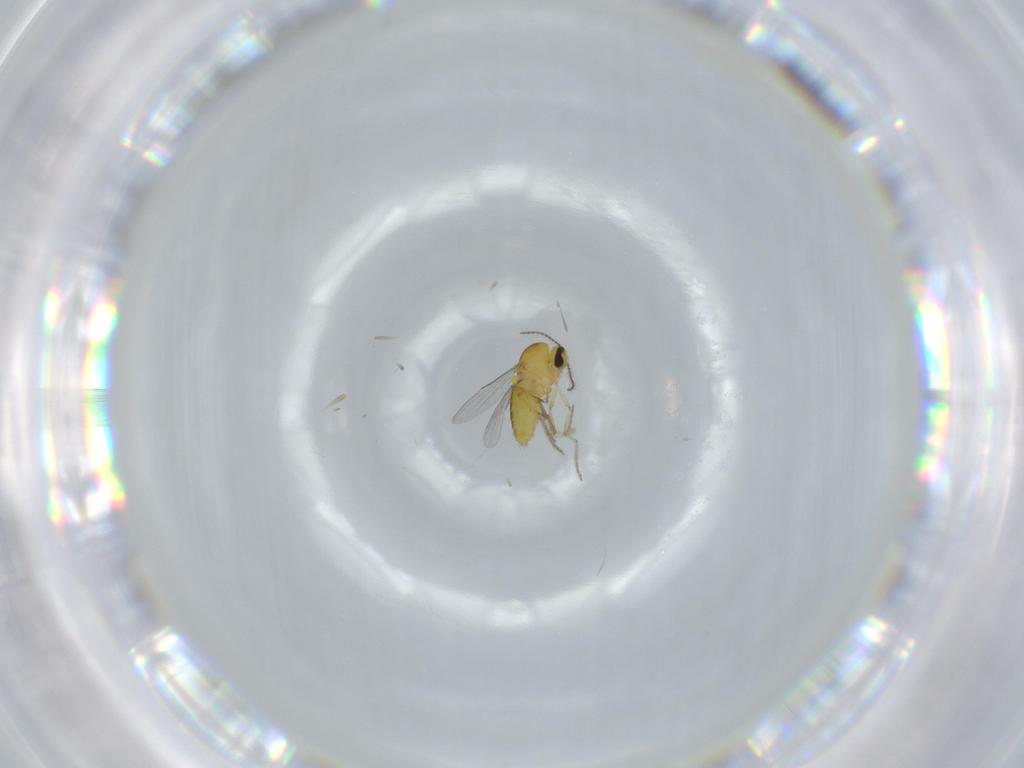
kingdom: Animalia
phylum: Arthropoda
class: Insecta
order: Diptera
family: Ceratopogonidae
